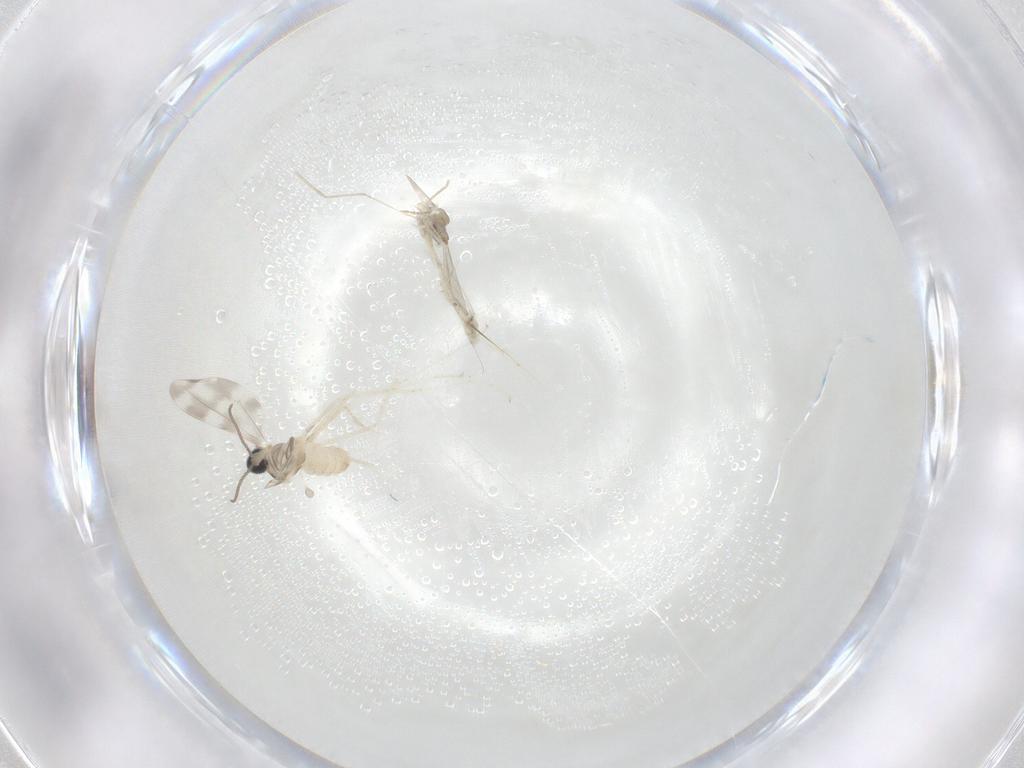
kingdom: Animalia
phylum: Arthropoda
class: Insecta
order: Diptera
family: Cecidomyiidae
